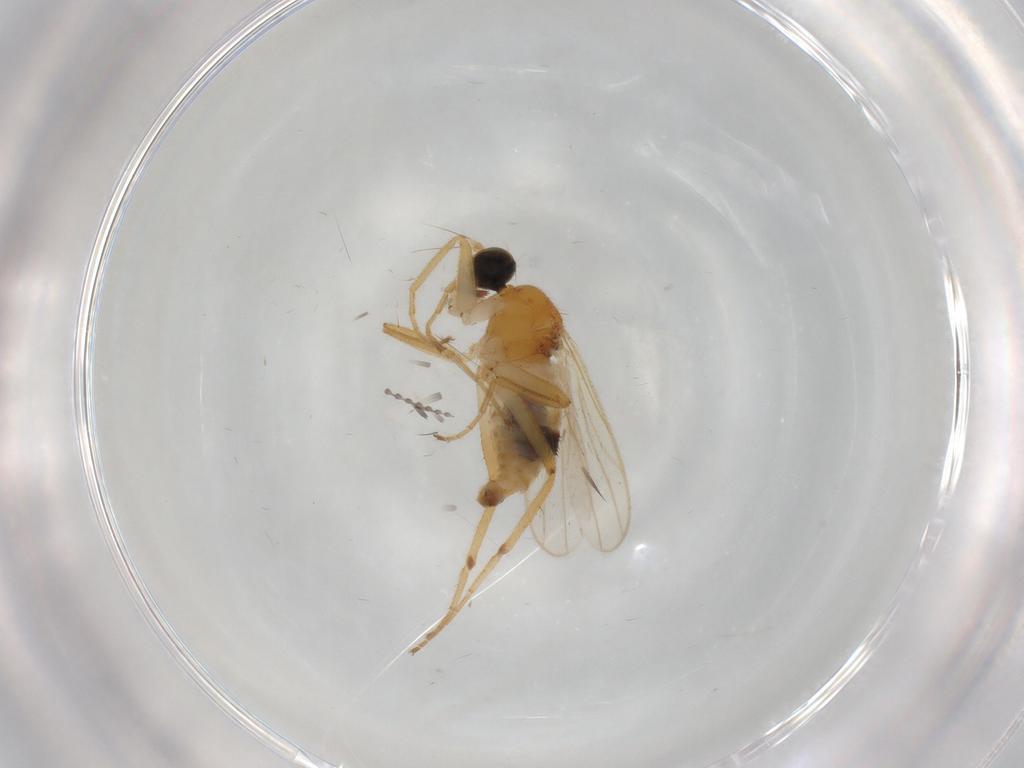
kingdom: Animalia
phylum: Arthropoda
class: Insecta
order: Diptera
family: Hybotidae
